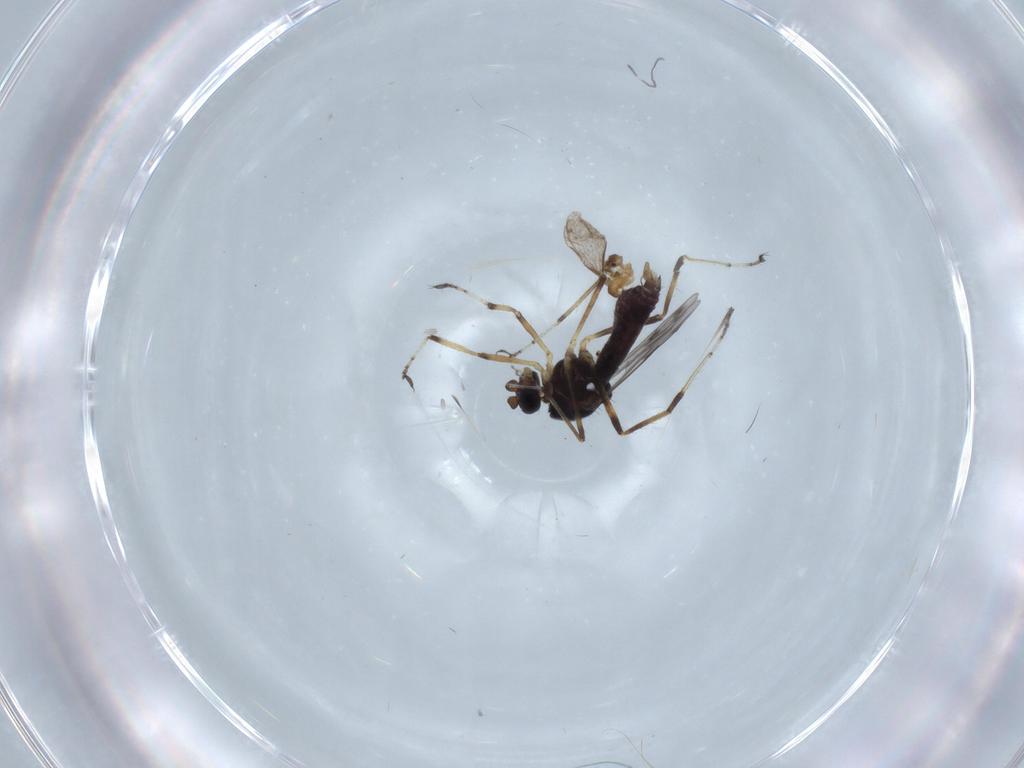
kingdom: Animalia
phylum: Arthropoda
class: Insecta
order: Diptera
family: Cecidomyiidae
